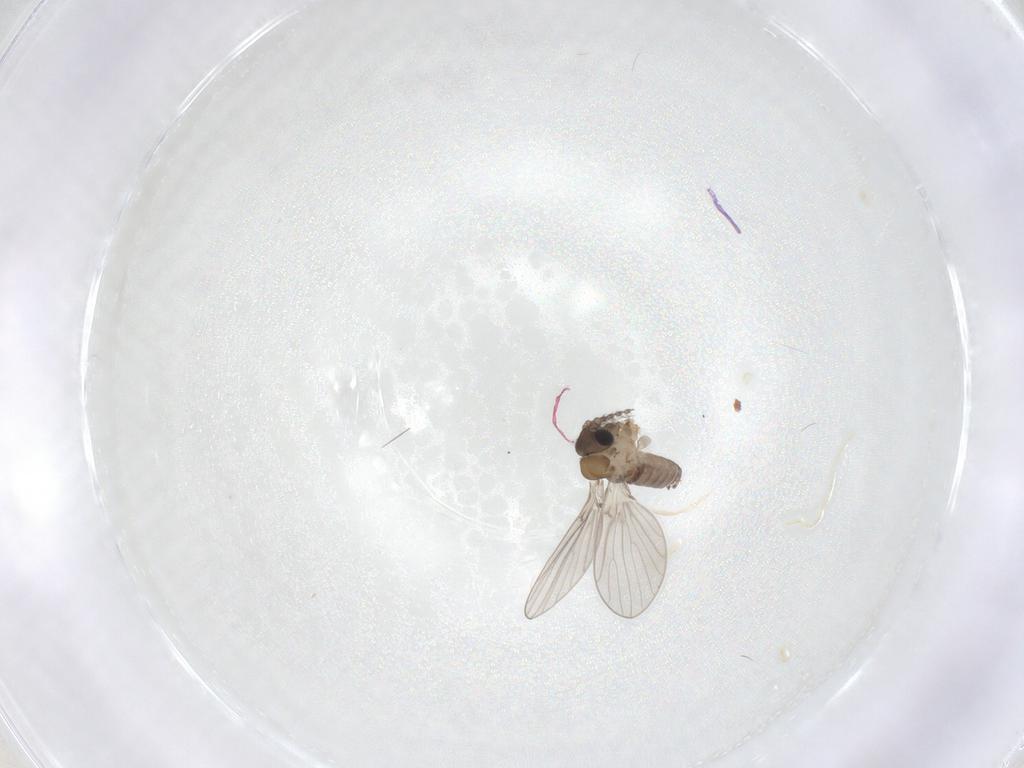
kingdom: Animalia
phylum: Arthropoda
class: Insecta
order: Diptera
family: Psychodidae
